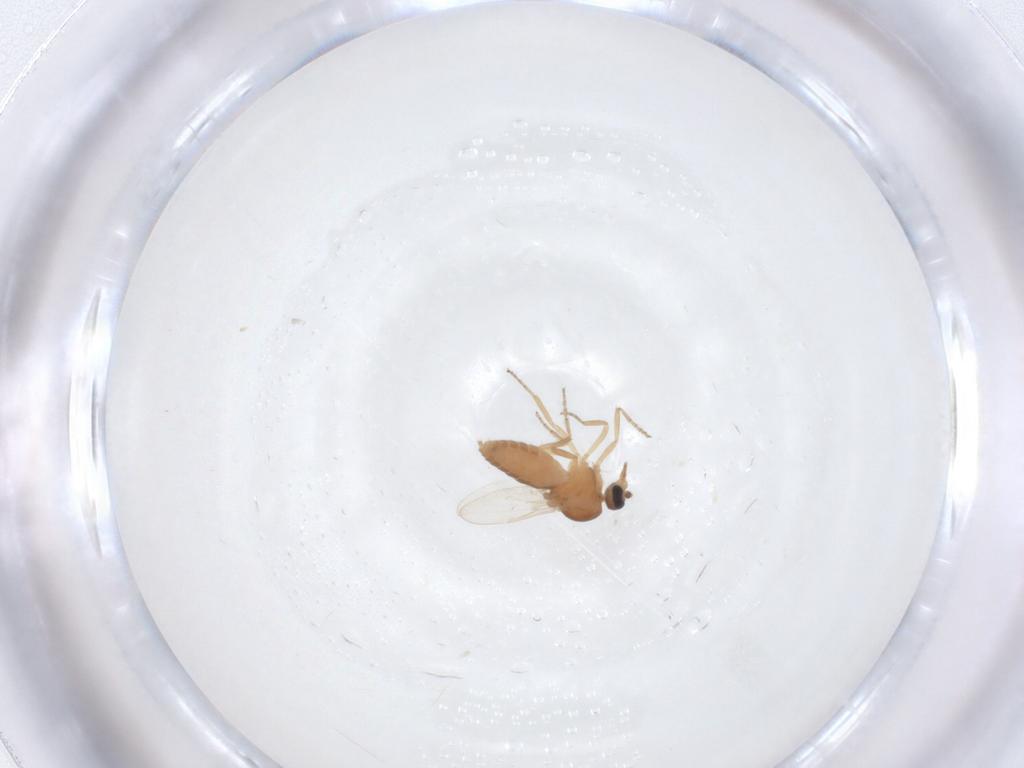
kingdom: Animalia
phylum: Arthropoda
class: Insecta
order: Diptera
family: Ceratopogonidae
